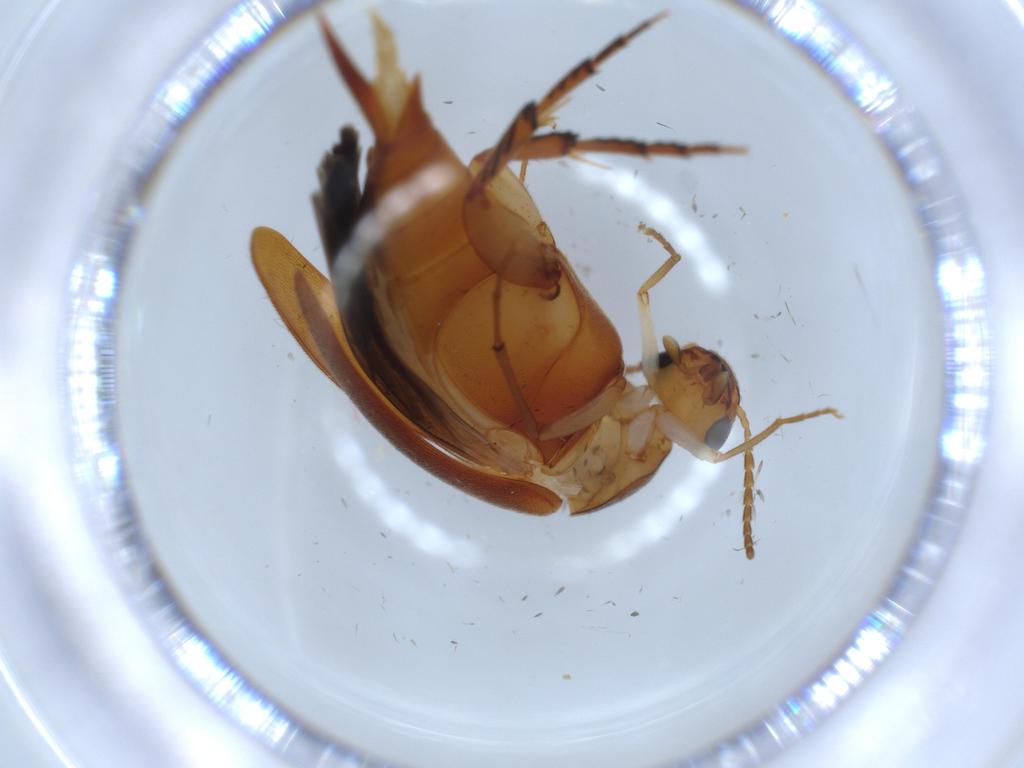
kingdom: Animalia
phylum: Arthropoda
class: Insecta
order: Coleoptera
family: Mordellidae
